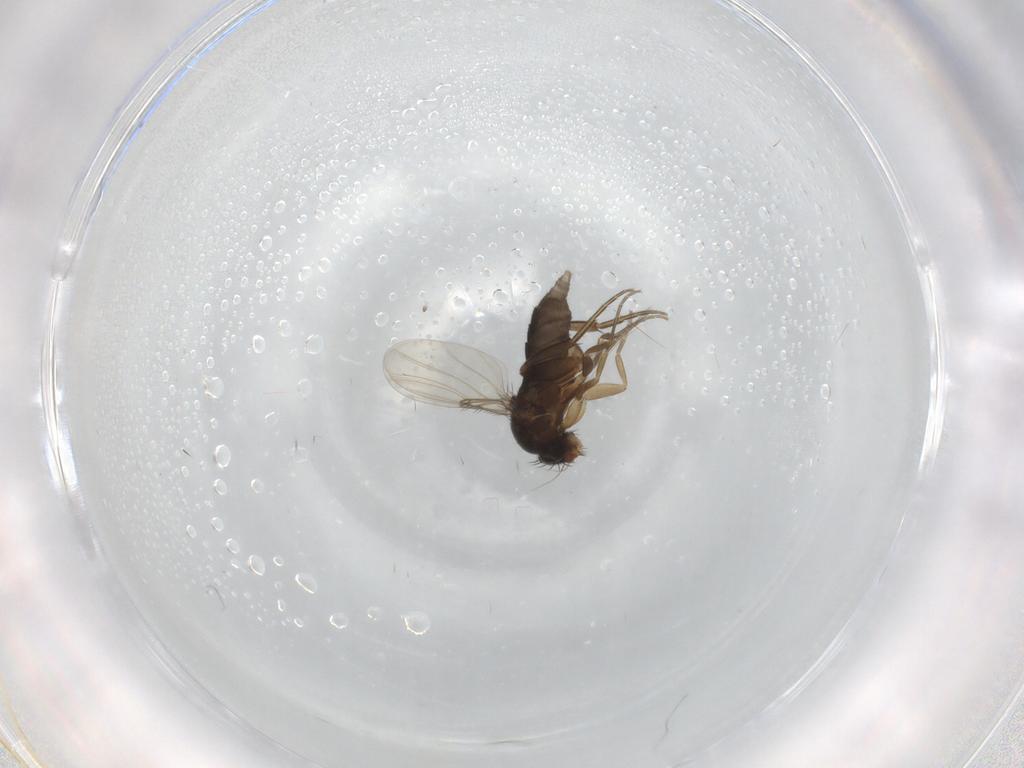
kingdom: Animalia
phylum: Arthropoda
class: Insecta
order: Diptera
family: Phoridae
